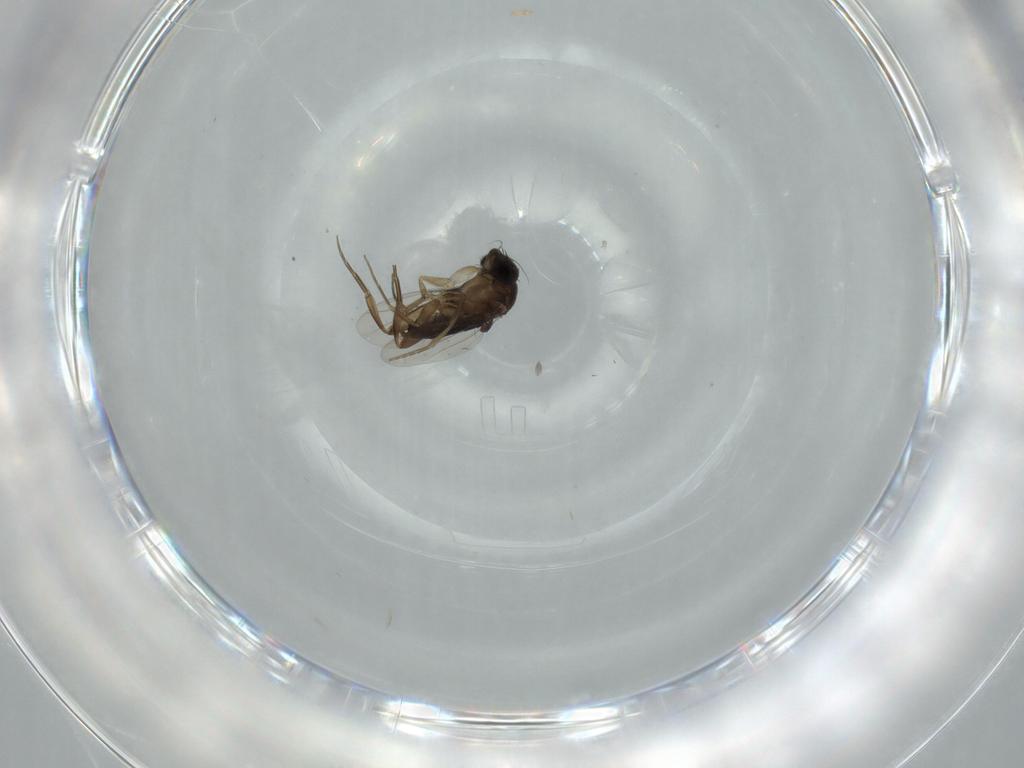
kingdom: Animalia
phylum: Arthropoda
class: Insecta
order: Diptera
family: Phoridae
